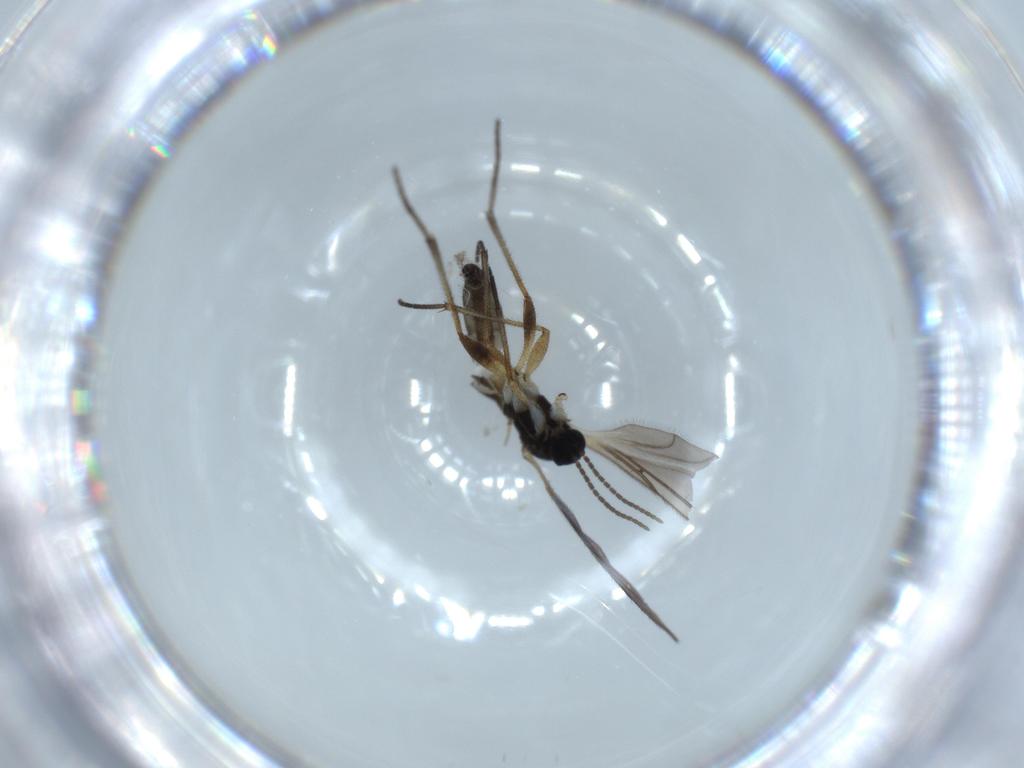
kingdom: Animalia
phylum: Arthropoda
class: Insecta
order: Diptera
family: Sciaridae
